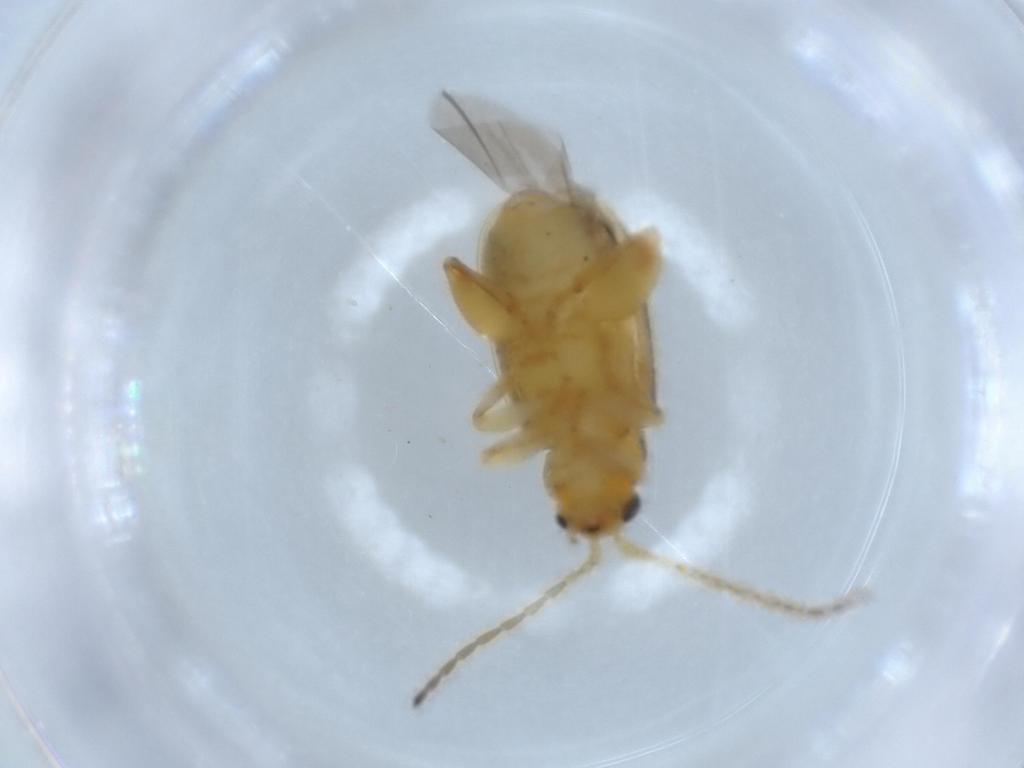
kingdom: Animalia
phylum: Arthropoda
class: Insecta
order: Coleoptera
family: Chrysomelidae
